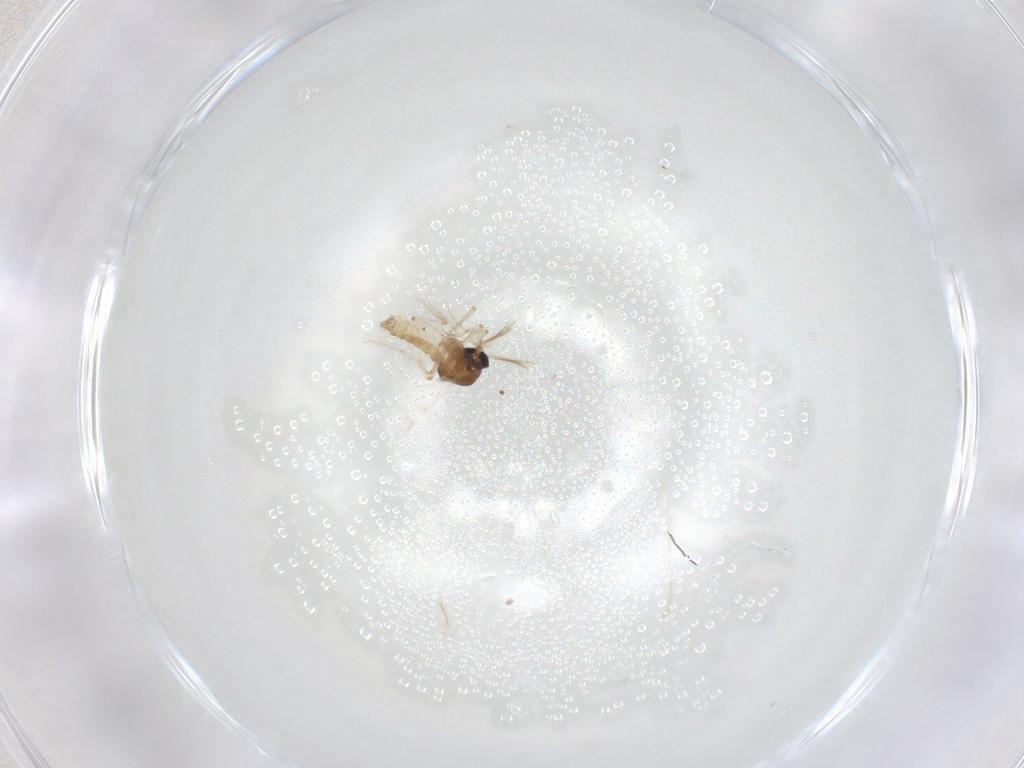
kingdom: Animalia
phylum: Arthropoda
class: Insecta
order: Diptera
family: Ceratopogonidae
